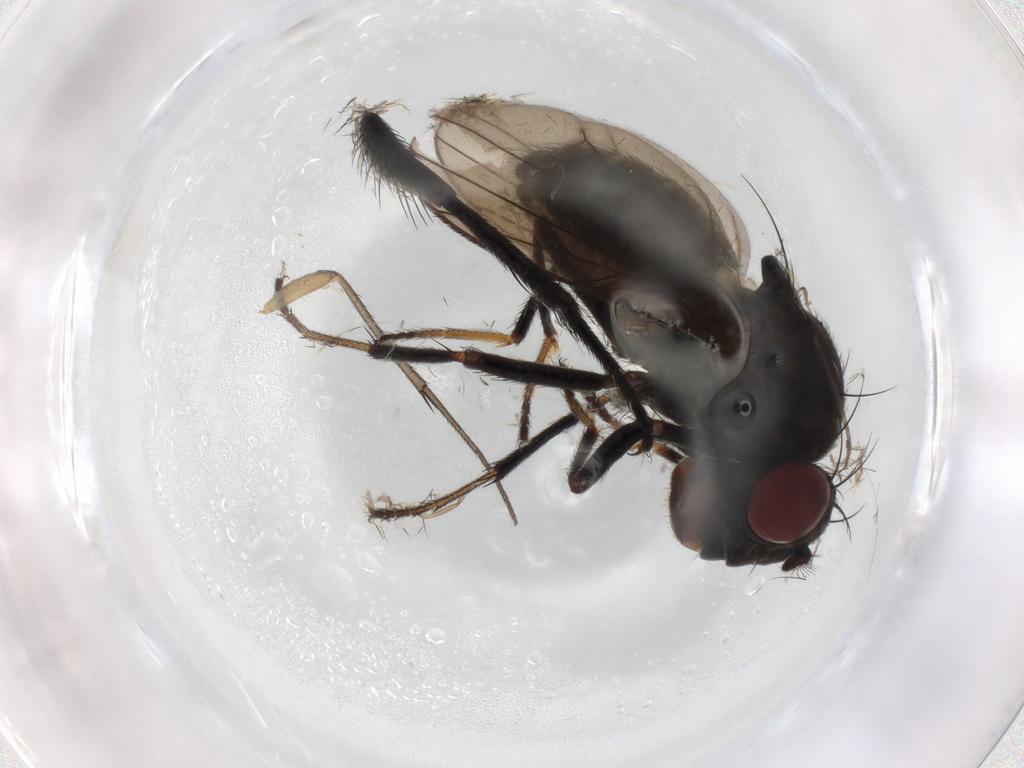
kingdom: Animalia
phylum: Arthropoda
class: Insecta
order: Diptera
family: Ephydridae
